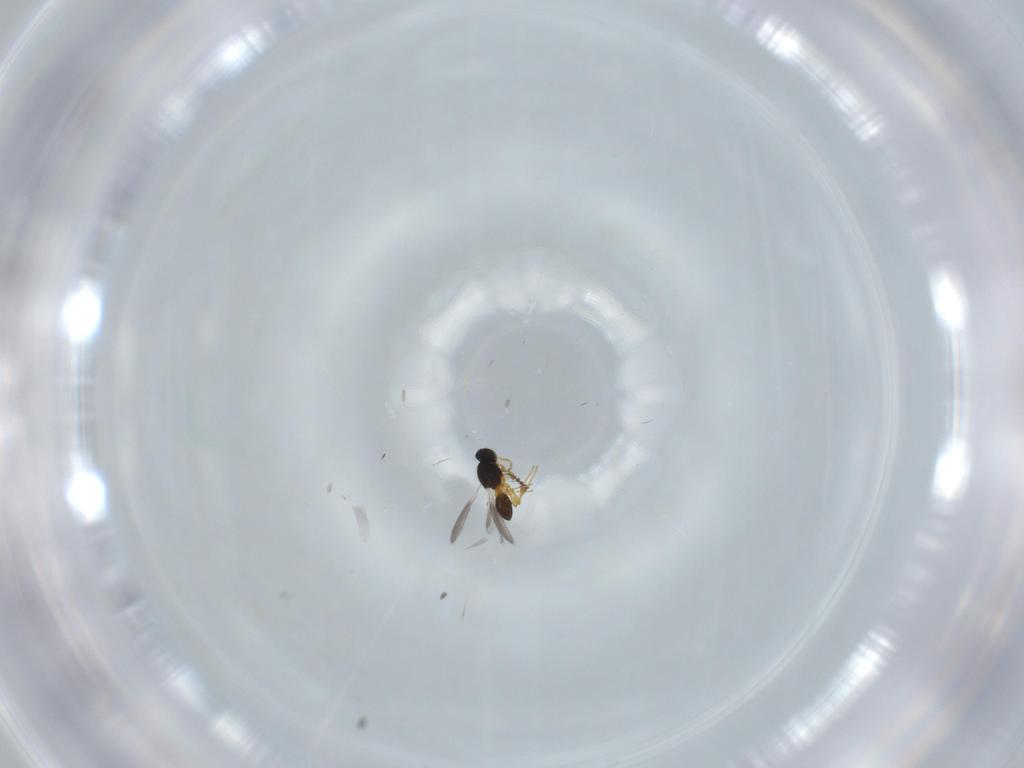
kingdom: Animalia
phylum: Arthropoda
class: Insecta
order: Hymenoptera
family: Platygastridae
